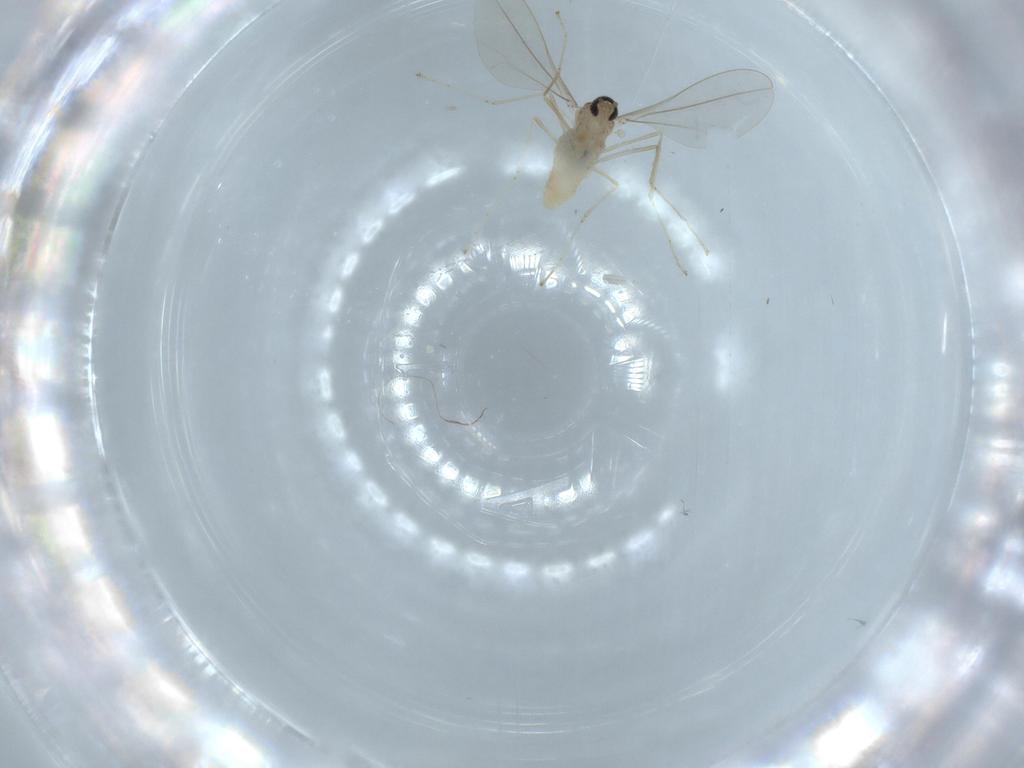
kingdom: Animalia
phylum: Arthropoda
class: Insecta
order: Diptera
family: Cecidomyiidae
